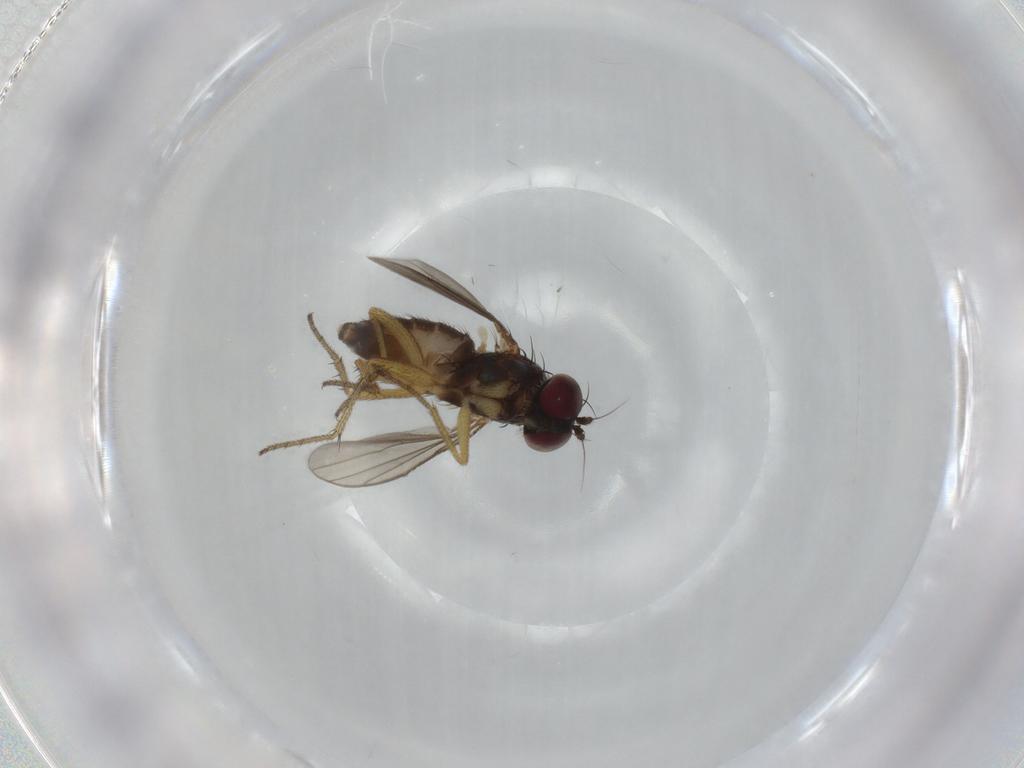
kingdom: Animalia
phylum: Arthropoda
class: Insecta
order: Diptera
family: Dolichopodidae
